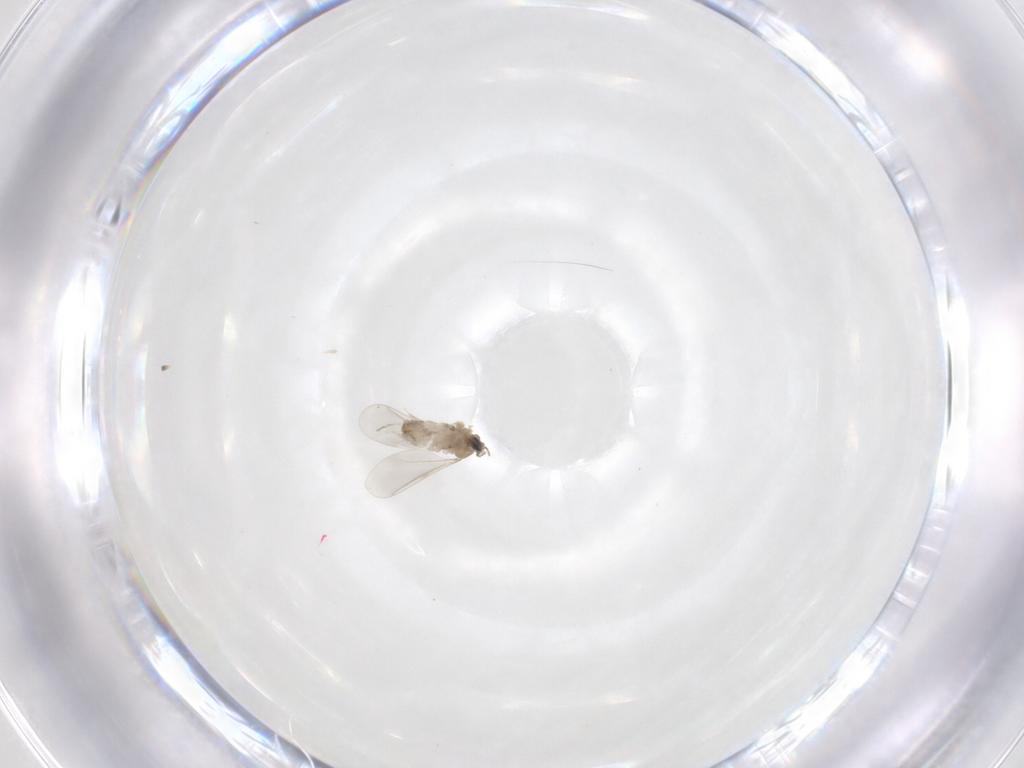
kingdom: Animalia
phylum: Arthropoda
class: Insecta
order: Diptera
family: Cecidomyiidae
